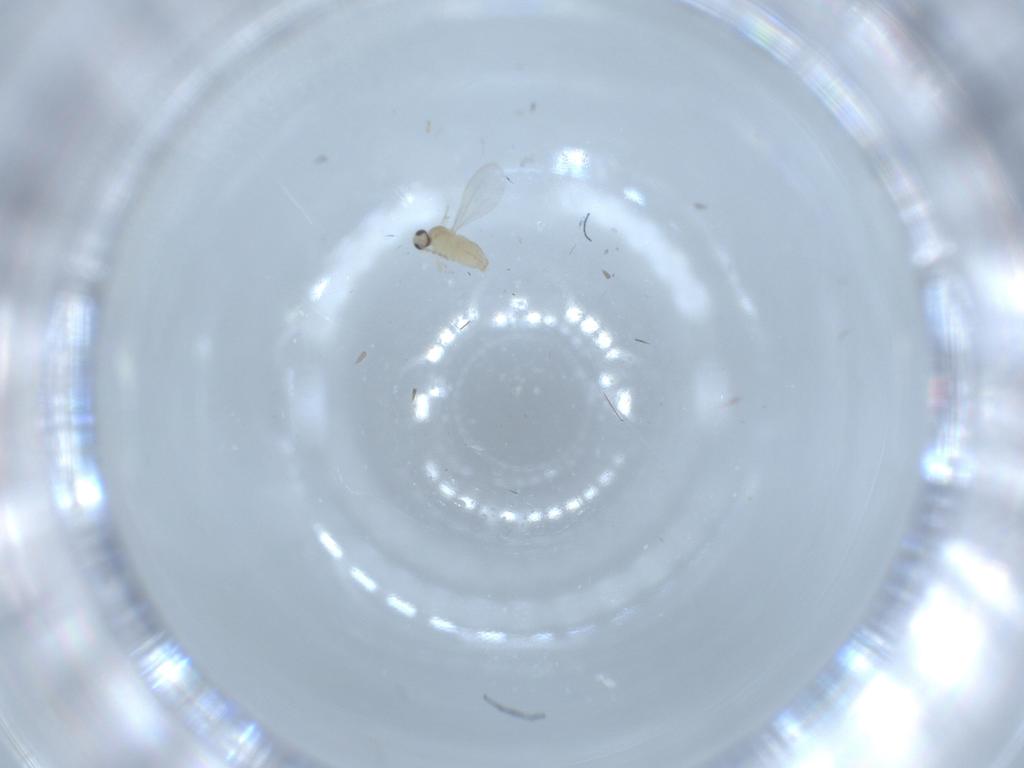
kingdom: Animalia
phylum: Arthropoda
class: Insecta
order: Diptera
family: Cecidomyiidae
